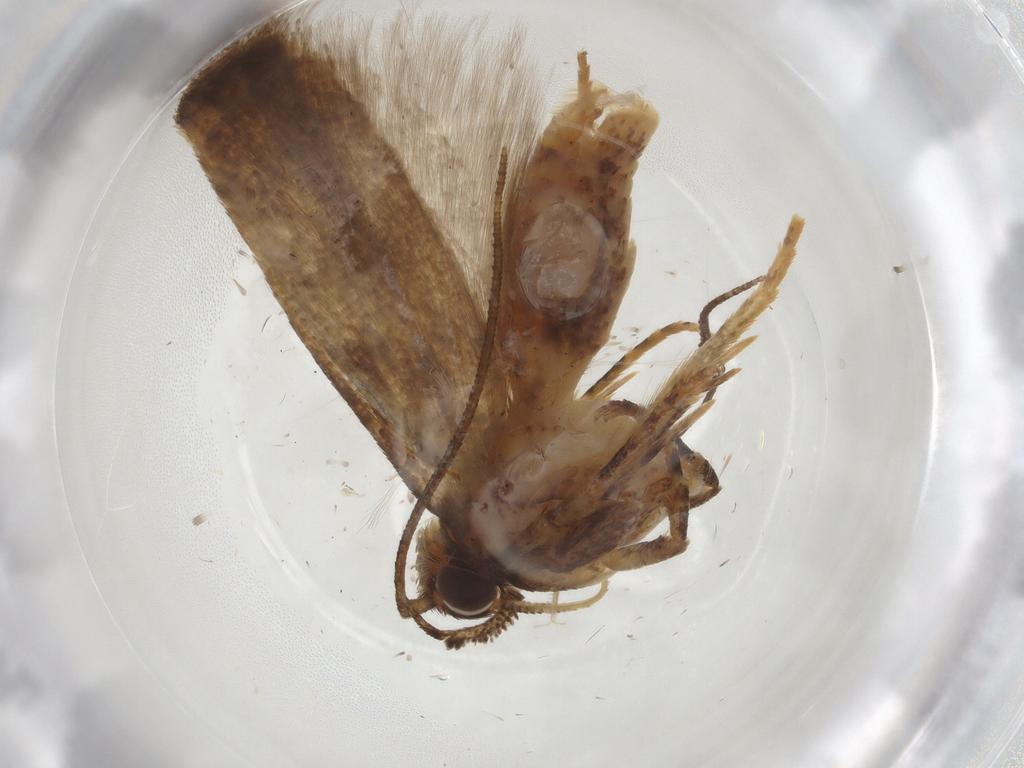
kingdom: Animalia
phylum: Arthropoda
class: Insecta
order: Lepidoptera
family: Gelechiidae
